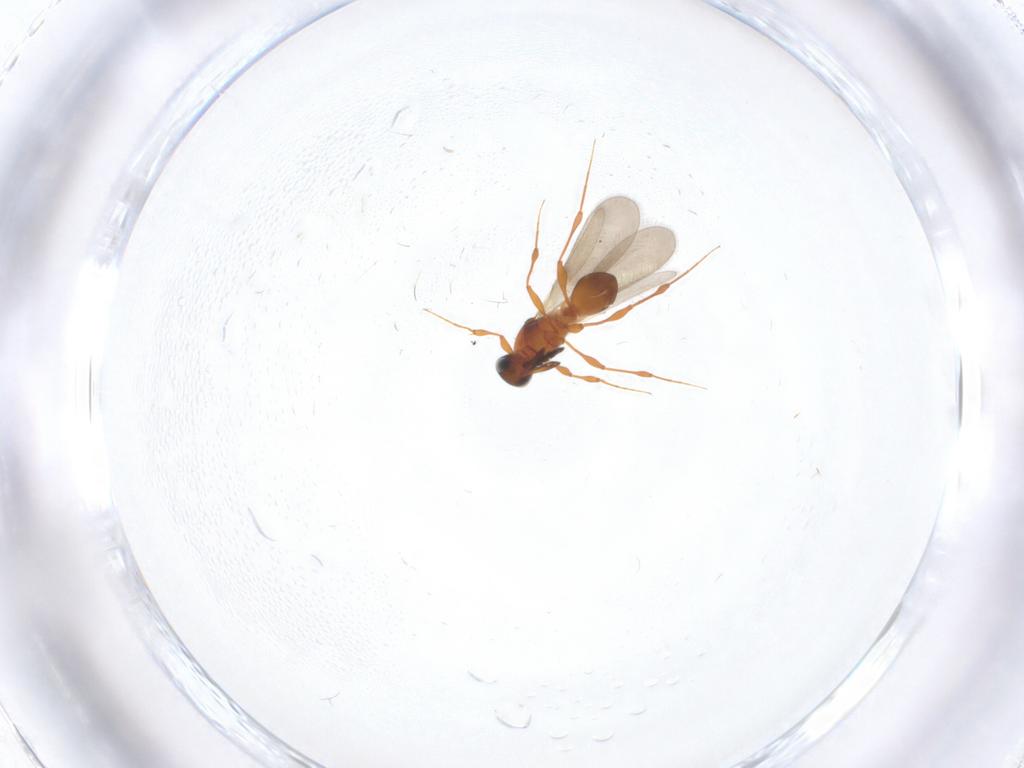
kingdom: Animalia
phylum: Arthropoda
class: Insecta
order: Hymenoptera
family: Platygastridae
